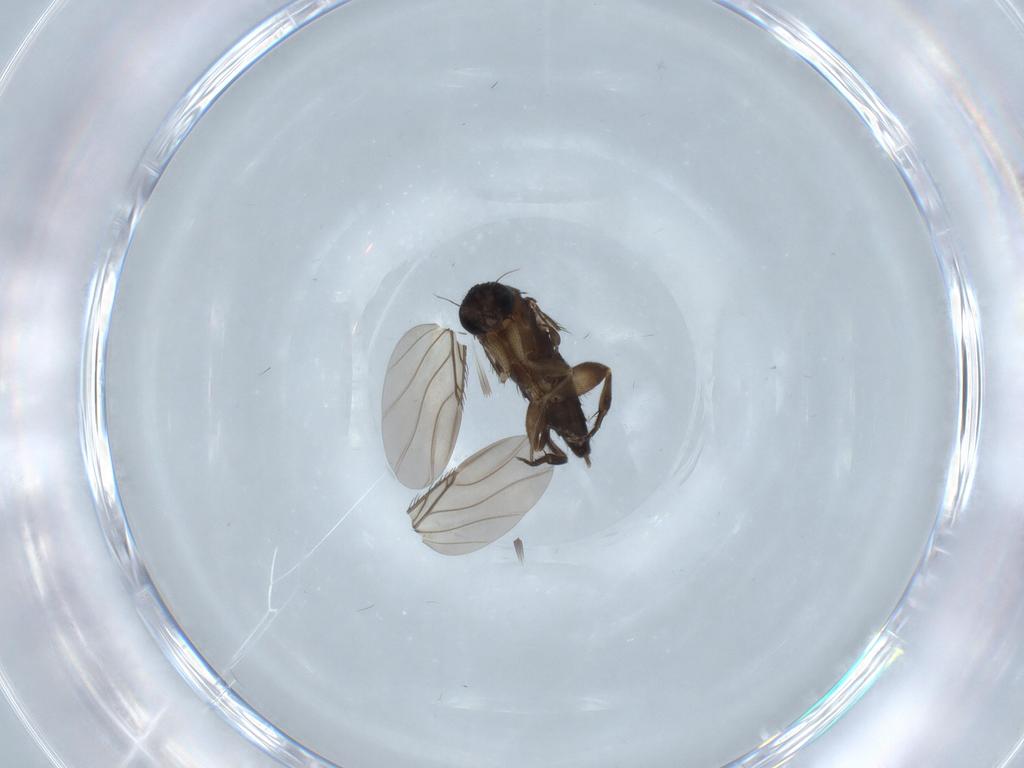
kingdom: Animalia
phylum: Arthropoda
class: Insecta
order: Diptera
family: Phoridae
